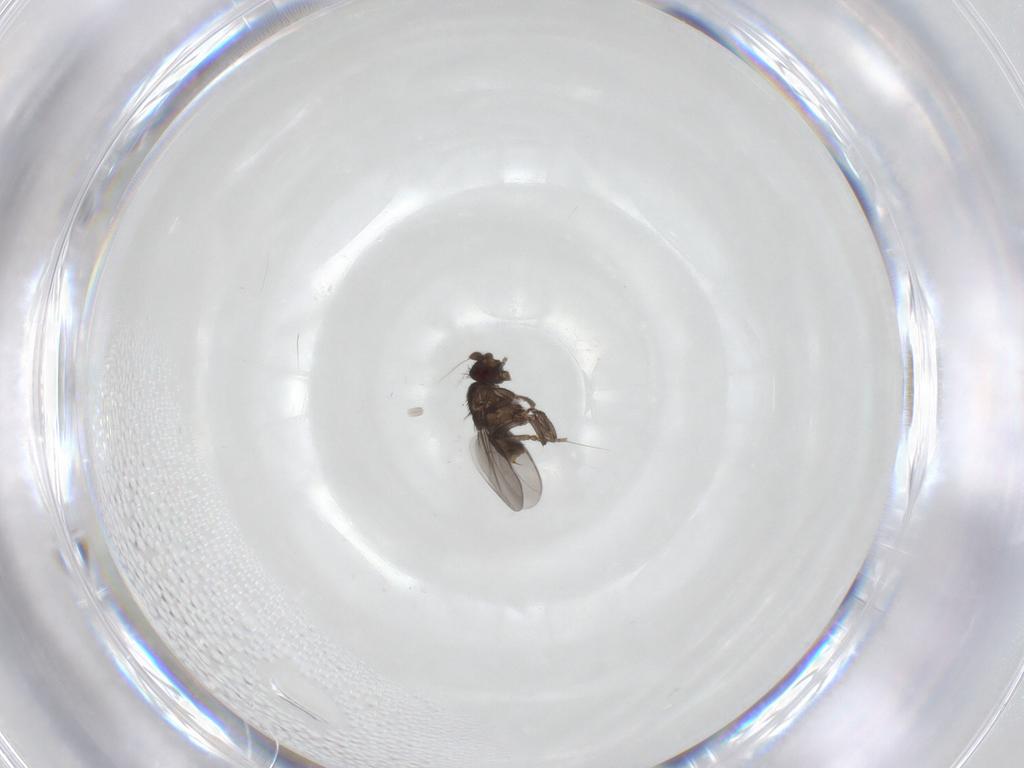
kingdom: Animalia
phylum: Arthropoda
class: Insecta
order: Diptera
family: Sphaeroceridae
